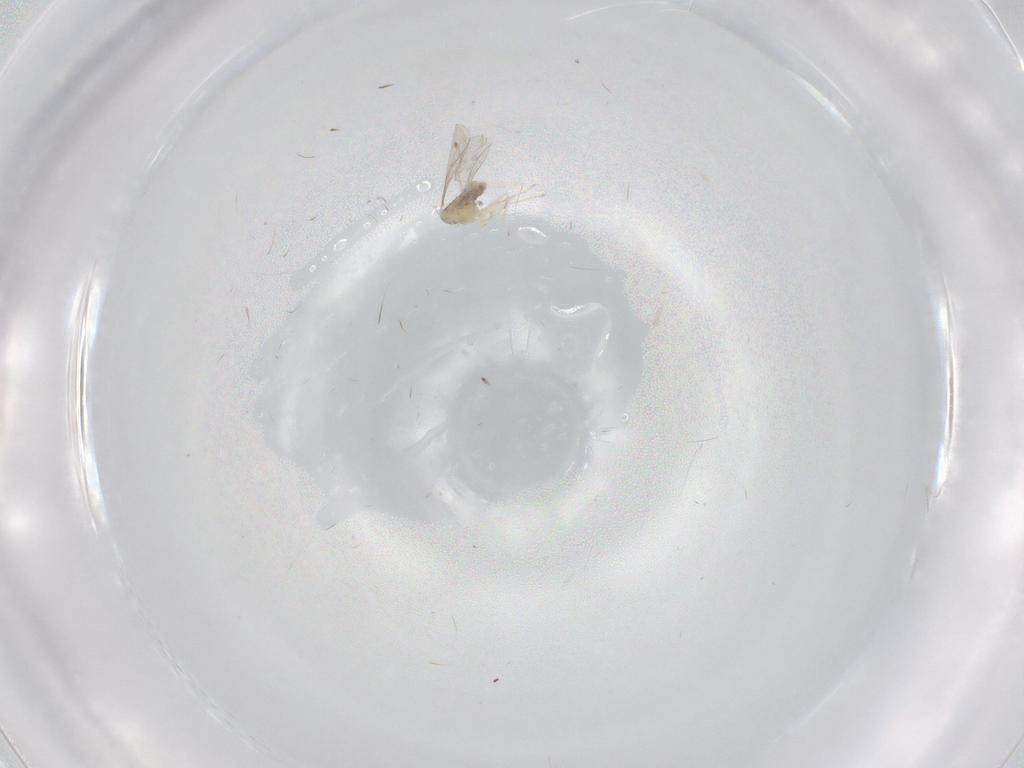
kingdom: Animalia
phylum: Arthropoda
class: Insecta
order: Diptera
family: Cecidomyiidae
